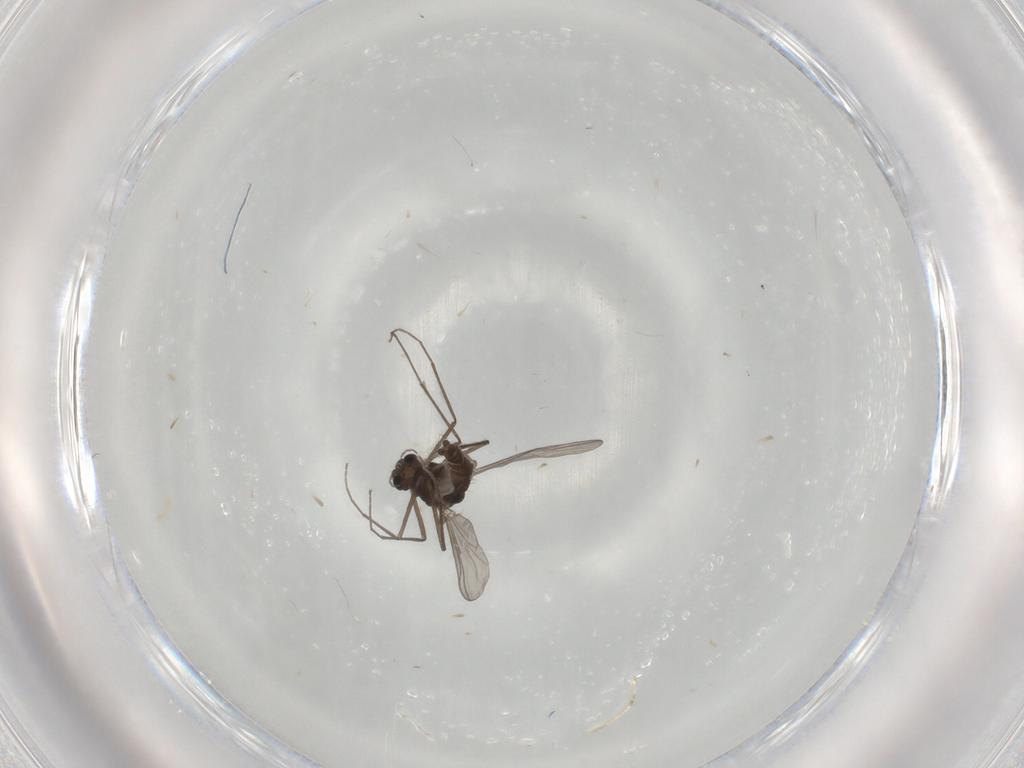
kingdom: Animalia
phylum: Arthropoda
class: Insecta
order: Diptera
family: Chironomidae
